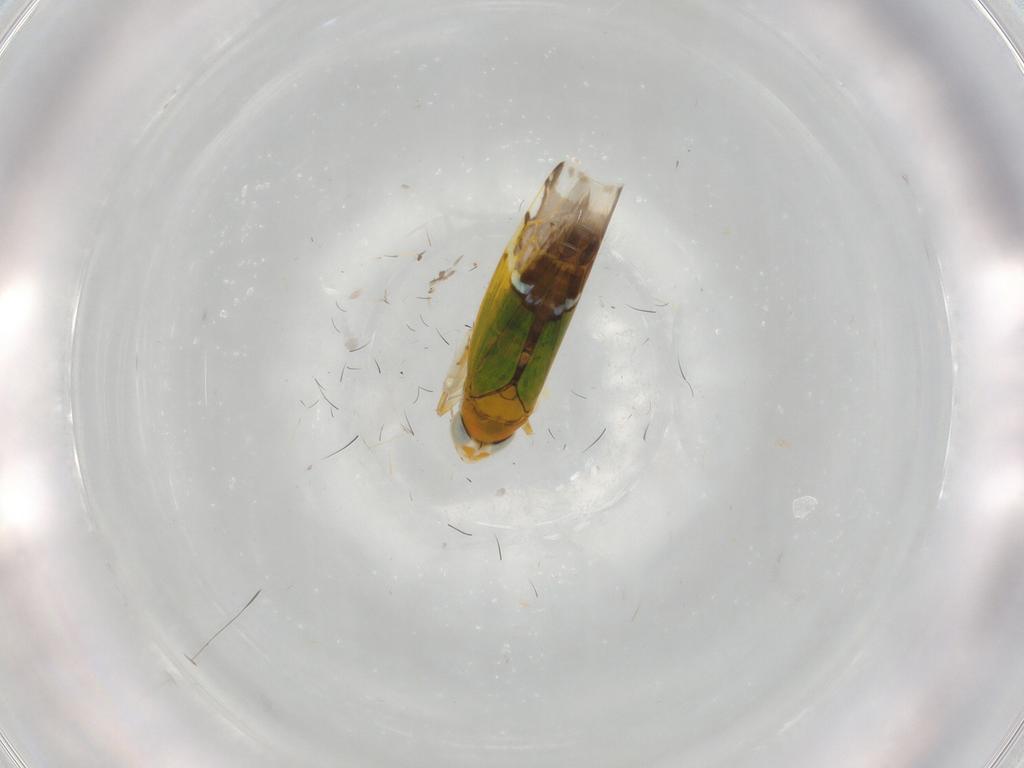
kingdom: Animalia
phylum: Arthropoda
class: Insecta
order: Hemiptera
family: Cicadellidae
